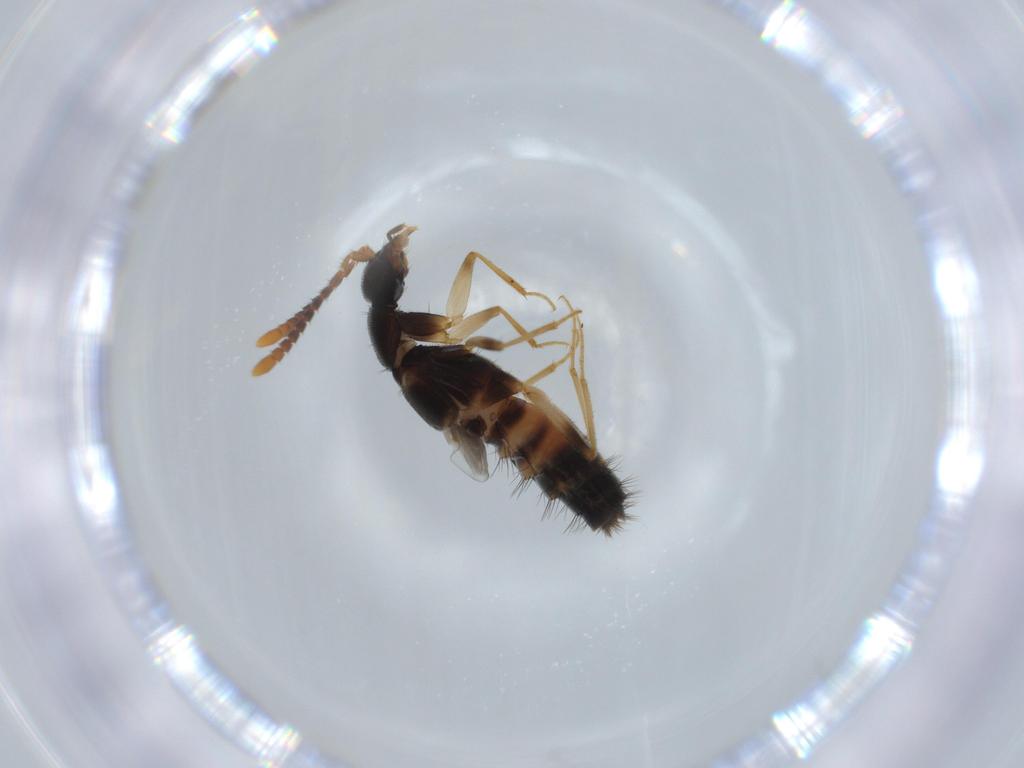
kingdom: Animalia
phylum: Arthropoda
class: Insecta
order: Coleoptera
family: Staphylinidae
